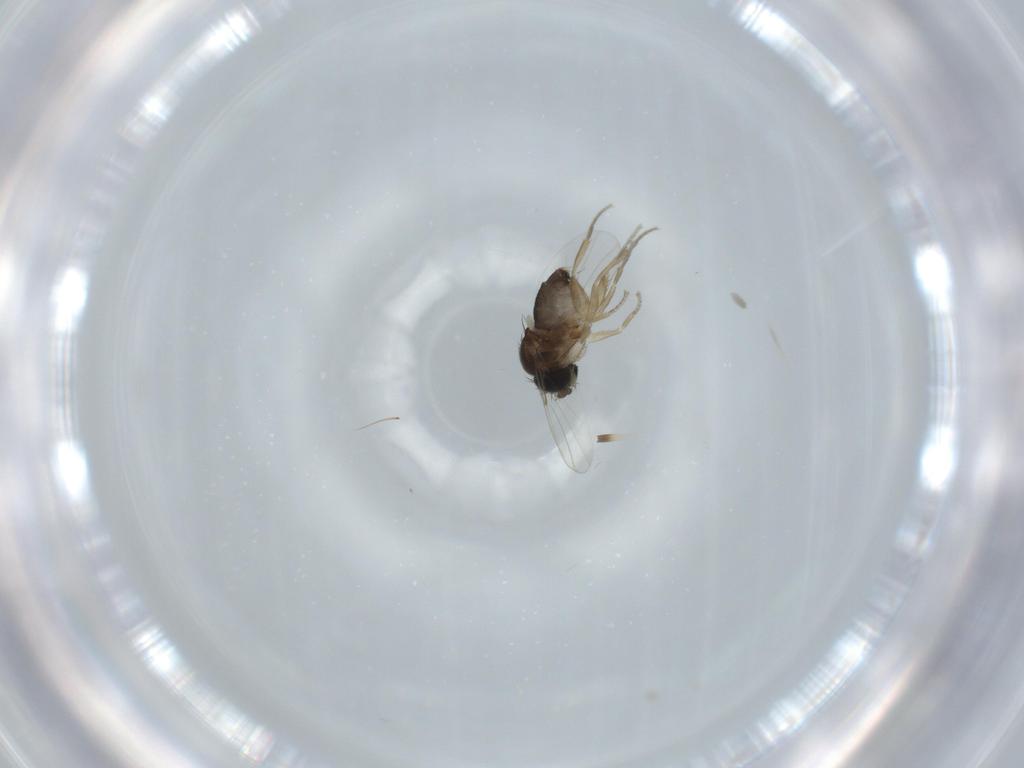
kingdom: Animalia
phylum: Arthropoda
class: Insecta
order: Diptera
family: Phoridae
